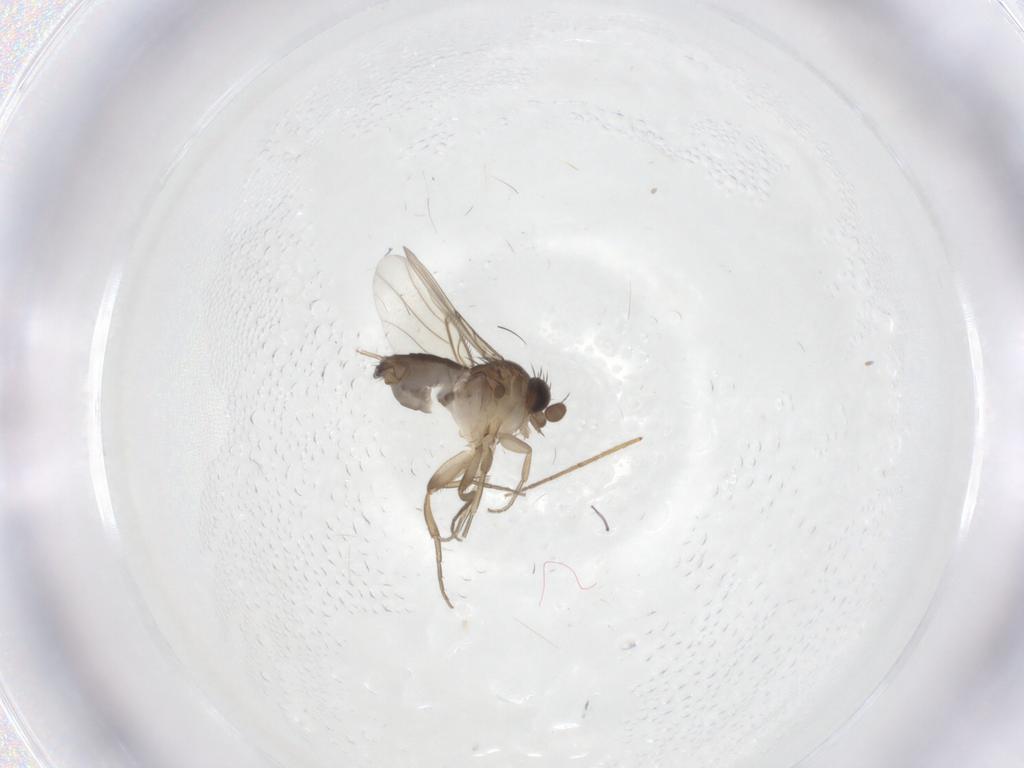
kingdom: Animalia
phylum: Arthropoda
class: Insecta
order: Diptera
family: Phoridae
